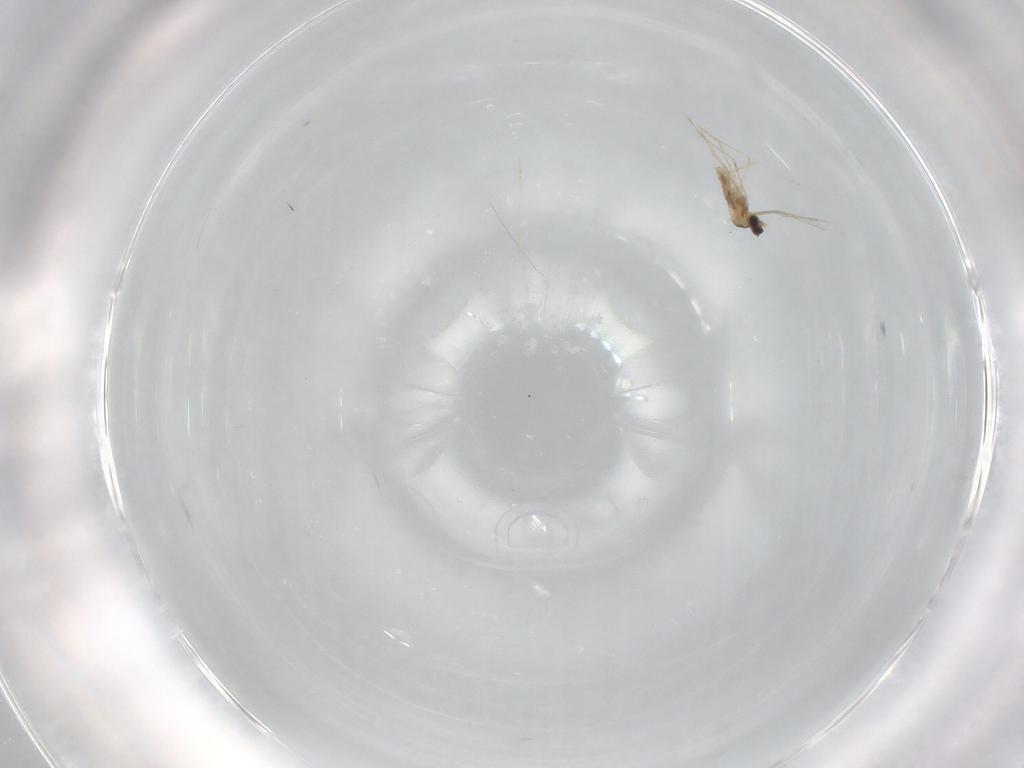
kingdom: Animalia
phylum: Arthropoda
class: Insecta
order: Diptera
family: Cecidomyiidae
